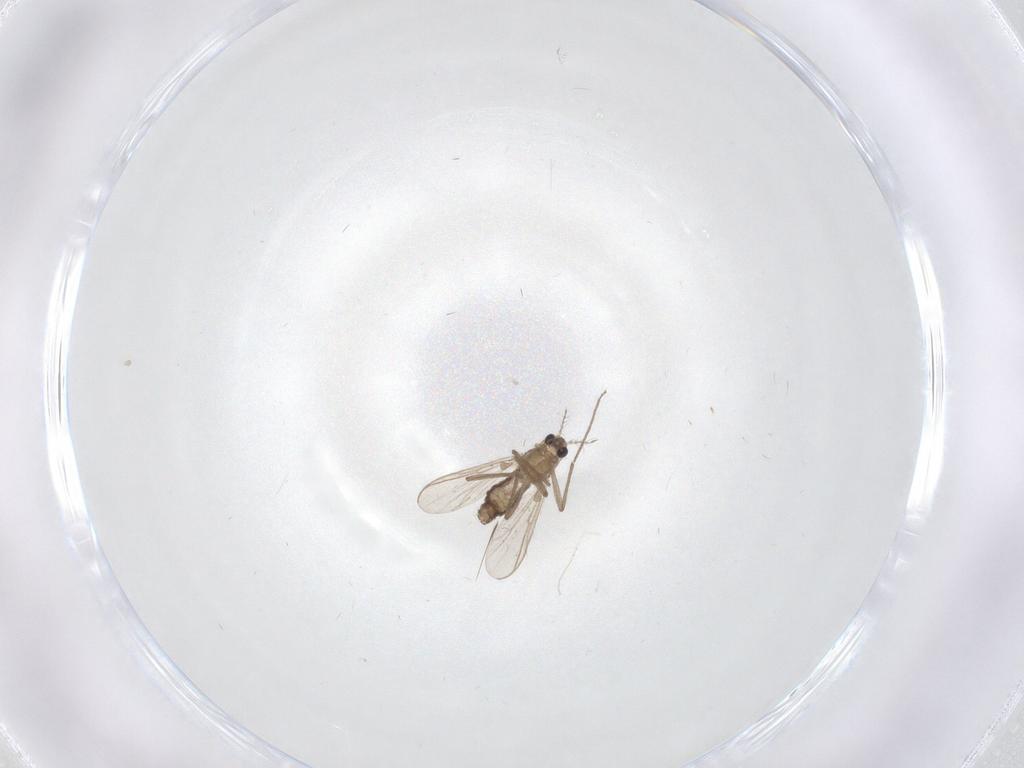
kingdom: Animalia
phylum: Arthropoda
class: Insecta
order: Diptera
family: Chironomidae
